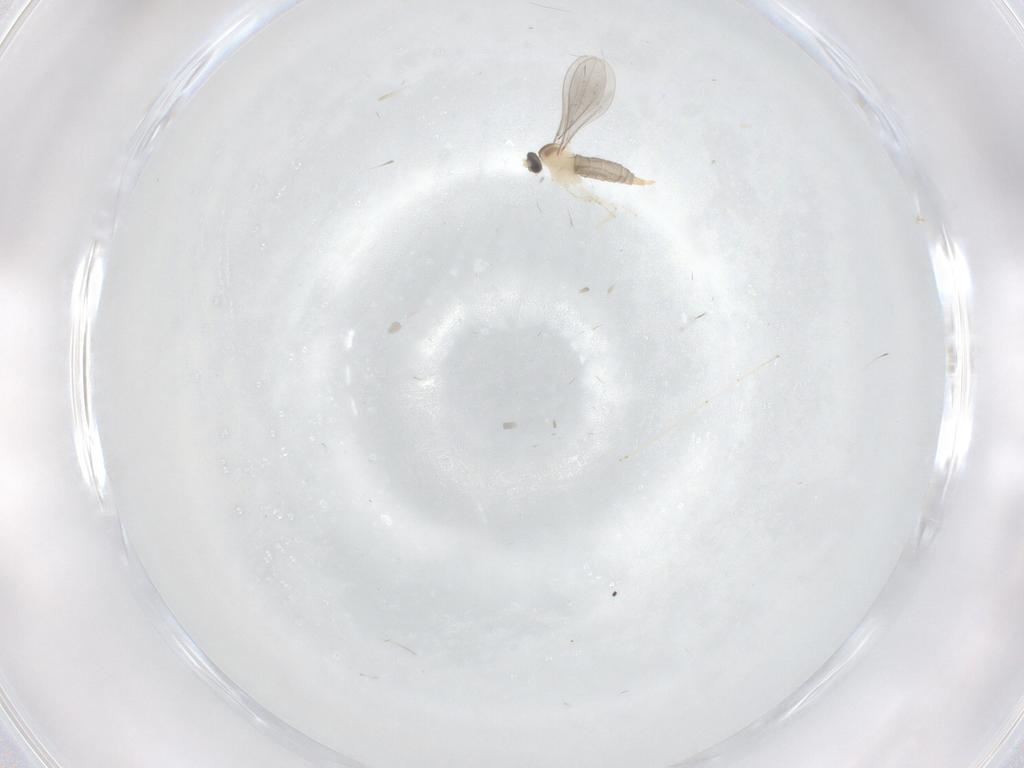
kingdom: Animalia
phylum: Arthropoda
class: Insecta
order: Diptera
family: Cecidomyiidae
